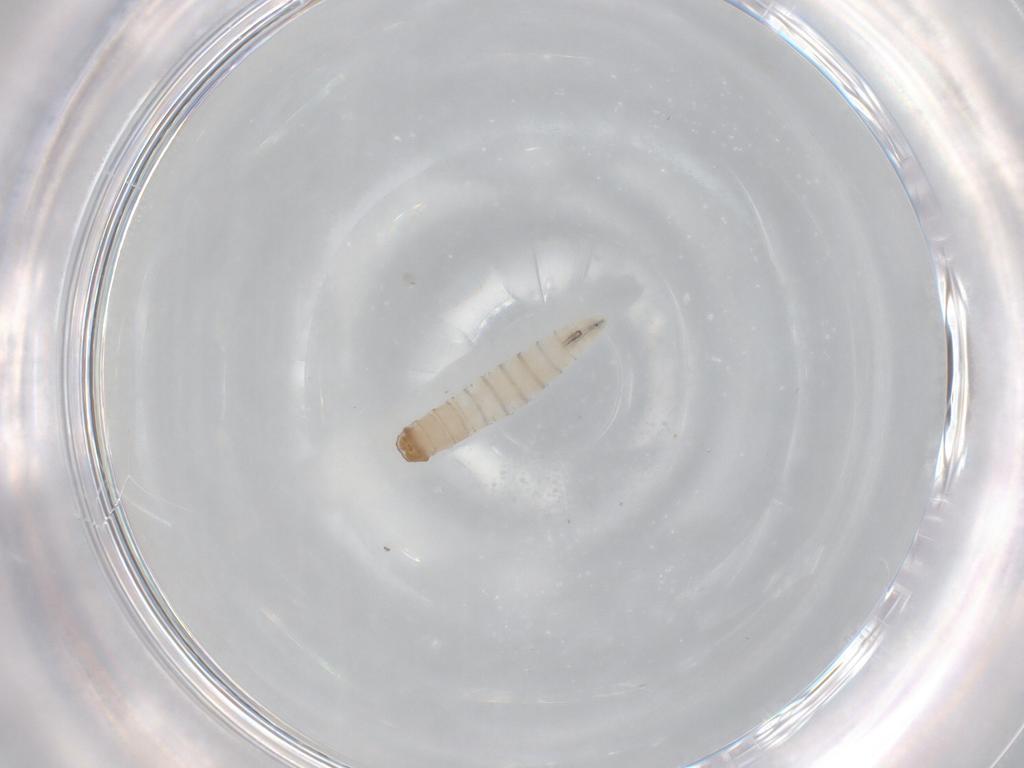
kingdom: Animalia
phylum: Arthropoda
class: Insecta
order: Diptera
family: Sarcophagidae
